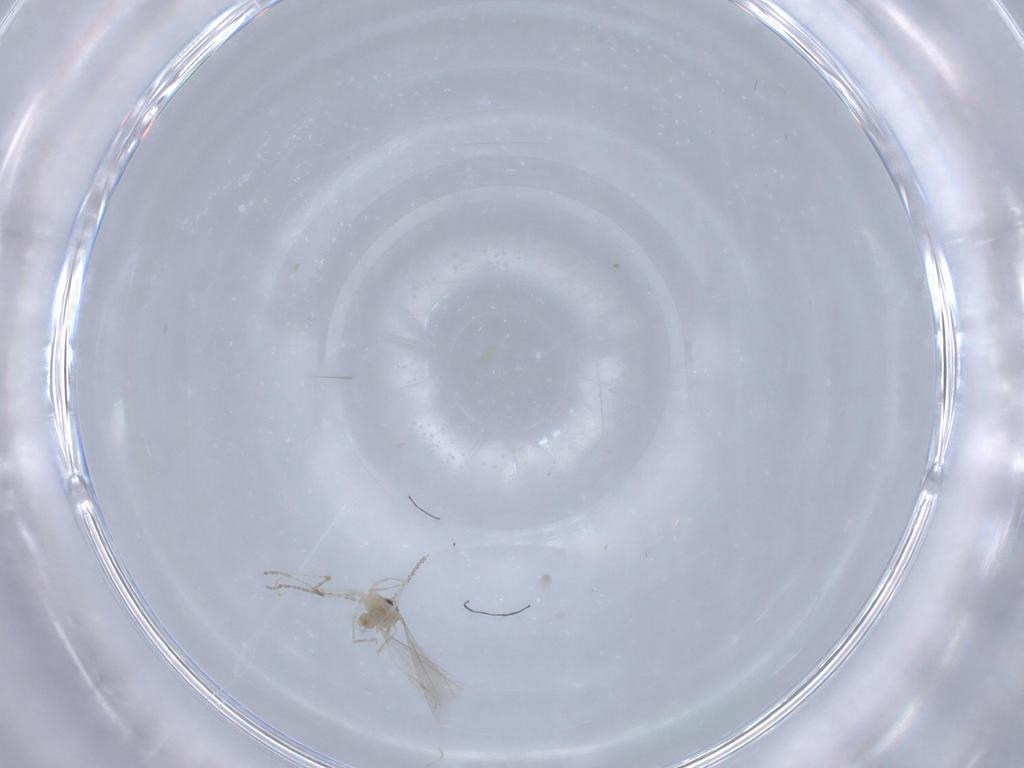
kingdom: Animalia
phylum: Arthropoda
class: Insecta
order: Diptera
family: Cecidomyiidae
